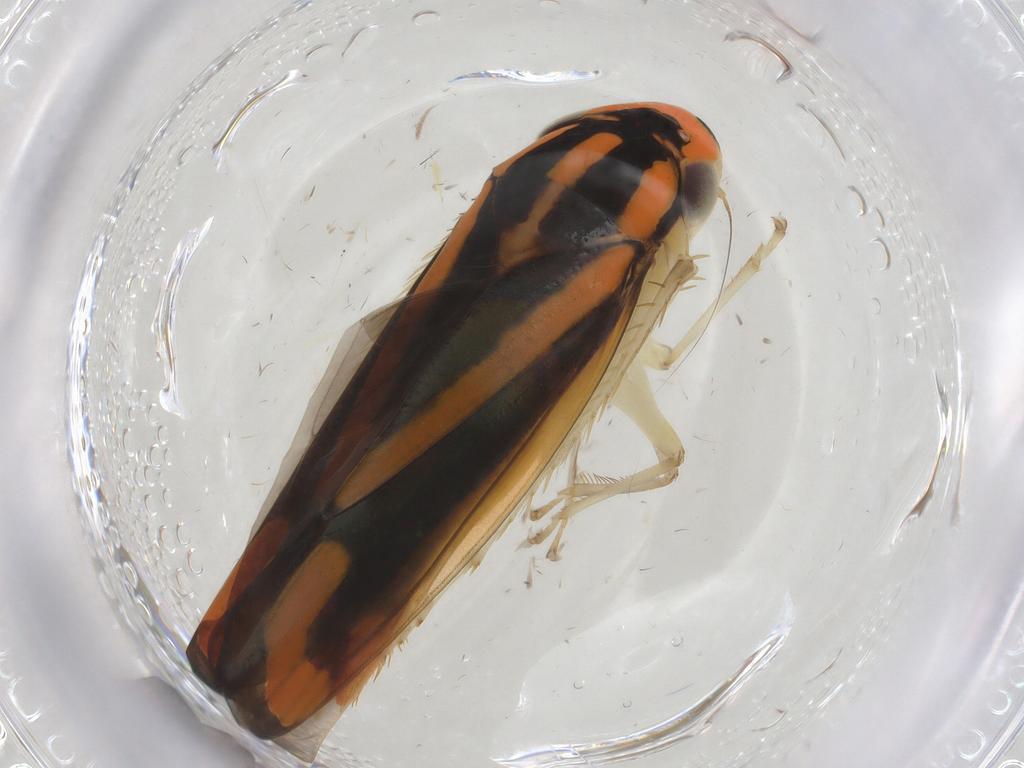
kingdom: Animalia
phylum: Arthropoda
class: Insecta
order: Hemiptera
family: Cicadellidae
